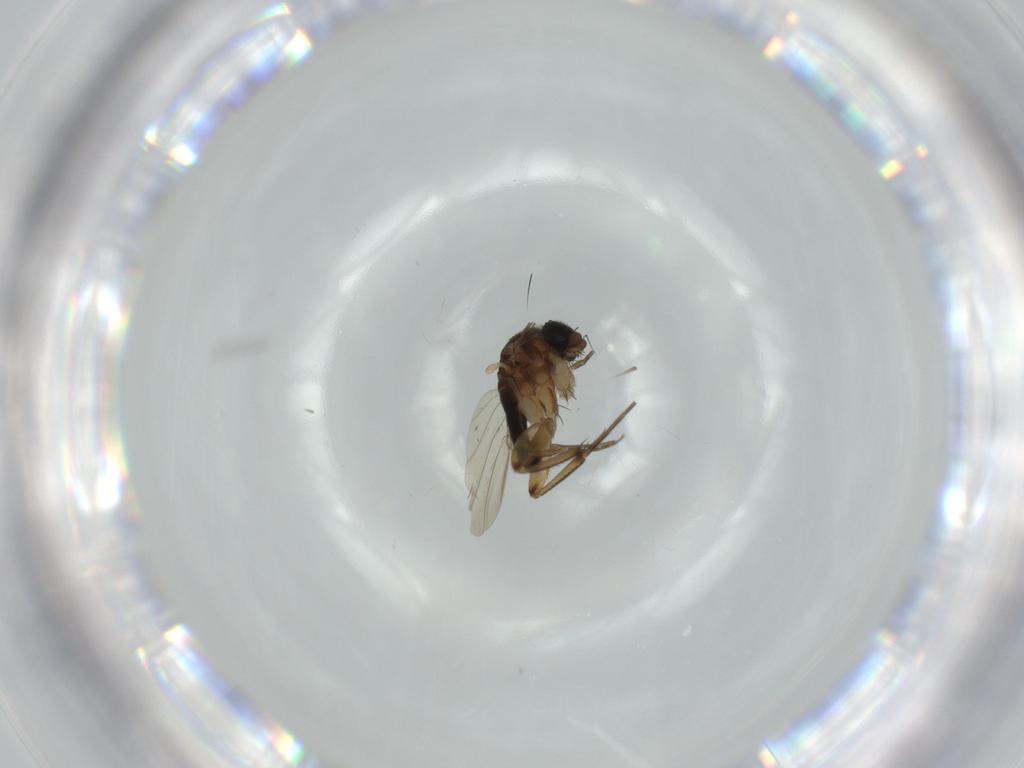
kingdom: Animalia
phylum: Arthropoda
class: Insecta
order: Diptera
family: Phoridae
